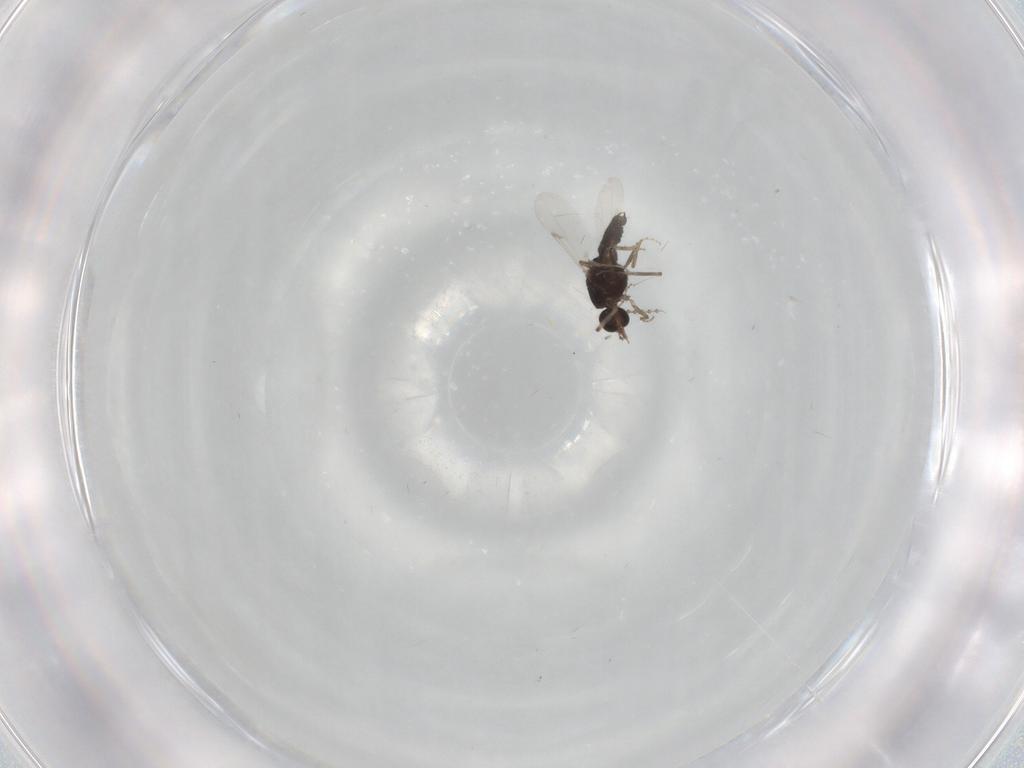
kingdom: Animalia
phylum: Arthropoda
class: Insecta
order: Diptera
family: Ceratopogonidae
